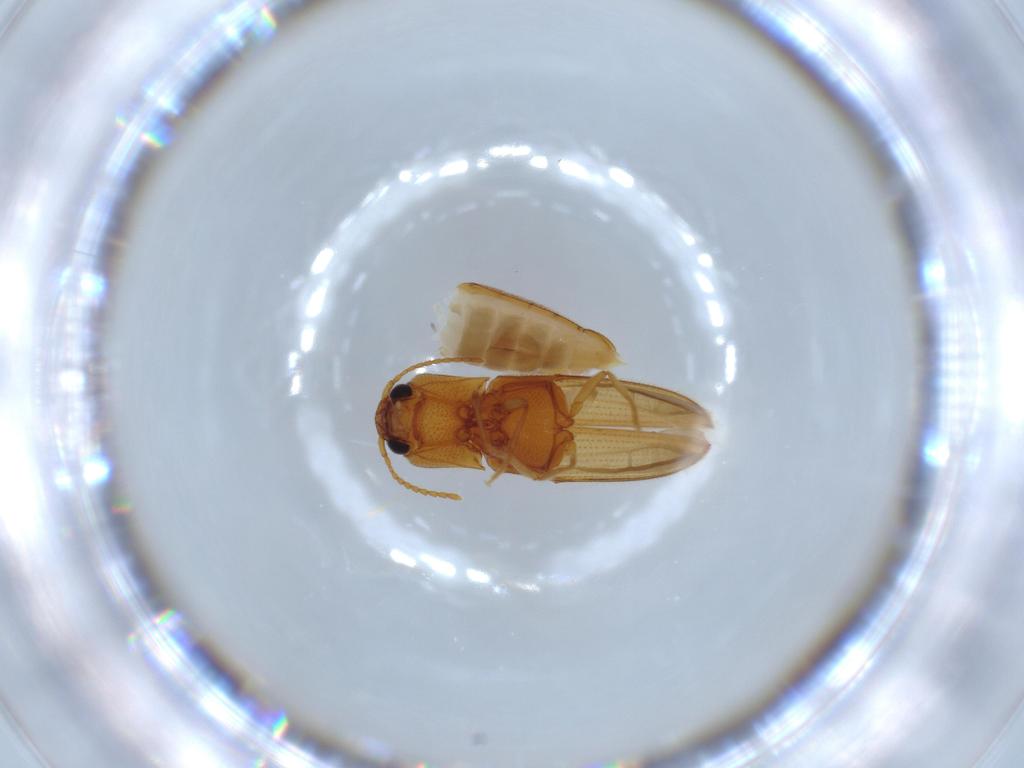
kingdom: Animalia
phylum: Arthropoda
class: Insecta
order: Coleoptera
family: Elateridae
